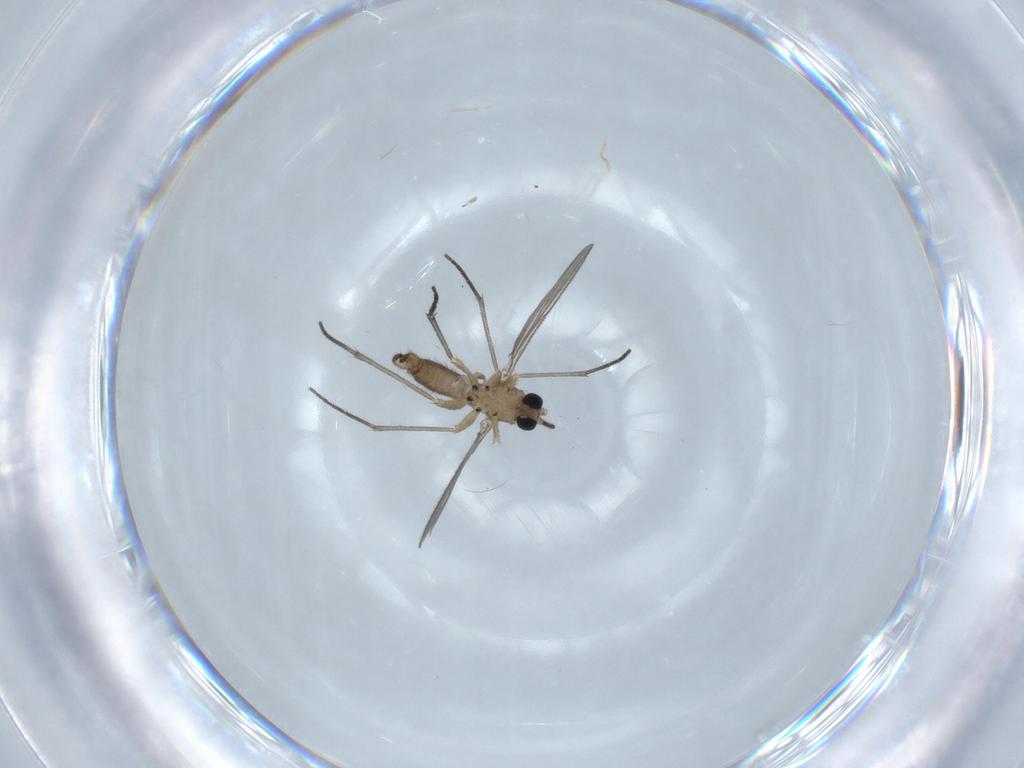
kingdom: Animalia
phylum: Arthropoda
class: Insecta
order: Diptera
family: Sciaridae
